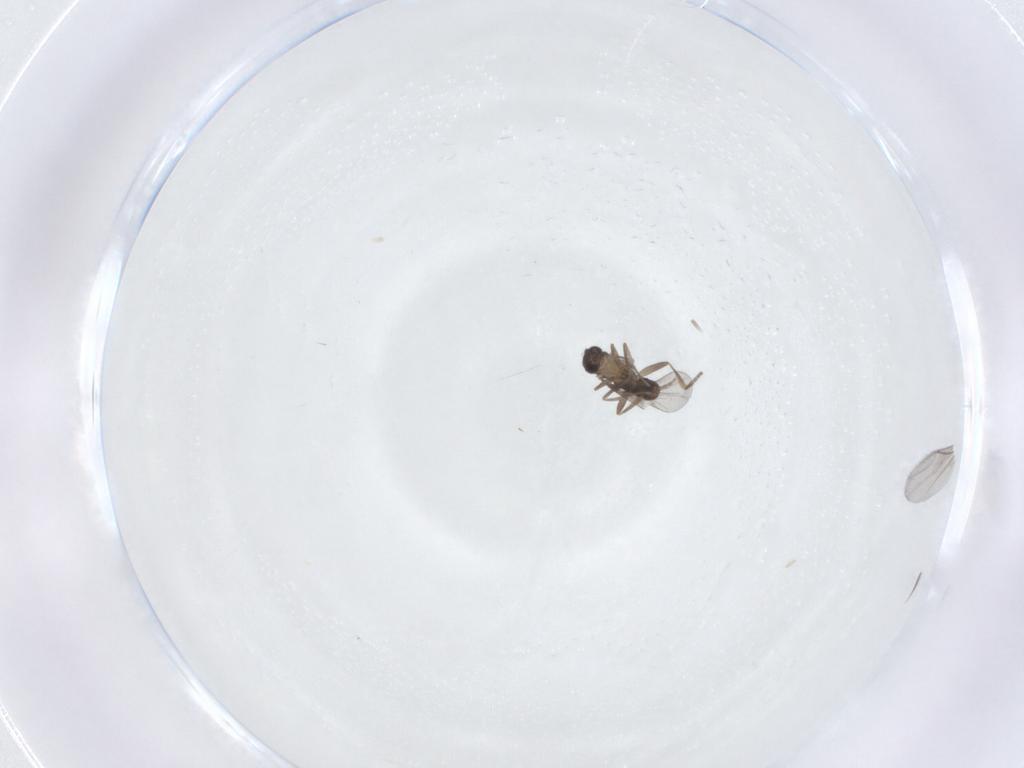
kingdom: Animalia
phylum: Arthropoda
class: Insecta
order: Diptera
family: Phoridae
